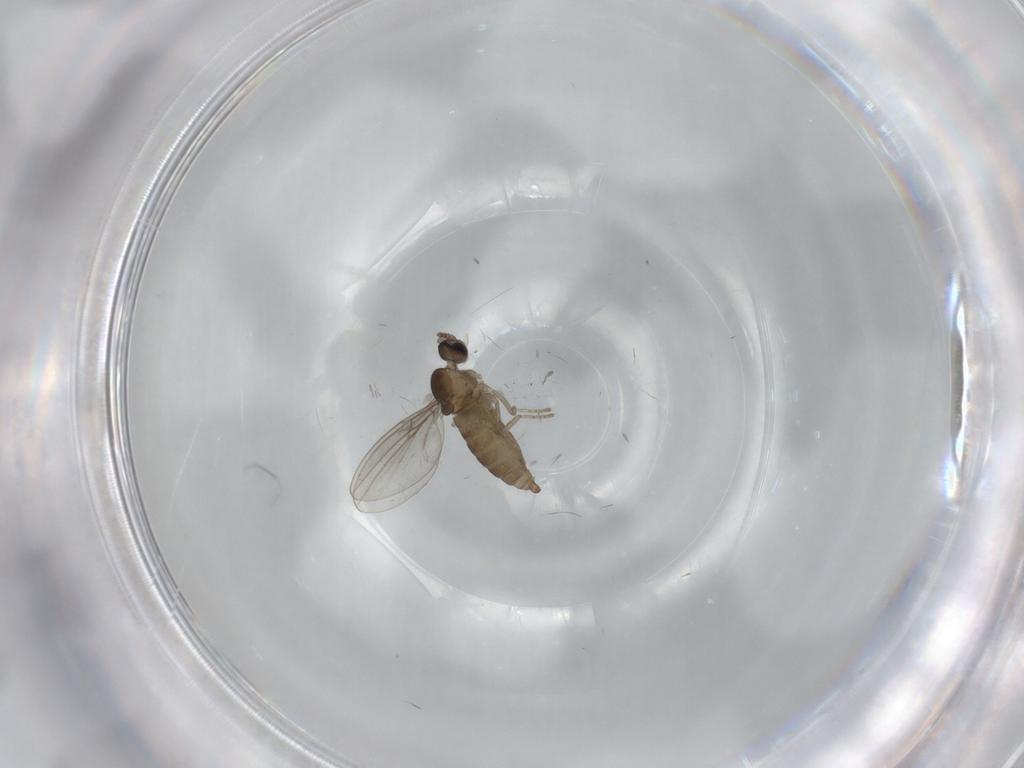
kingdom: Animalia
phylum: Arthropoda
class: Insecta
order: Diptera
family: Cecidomyiidae
